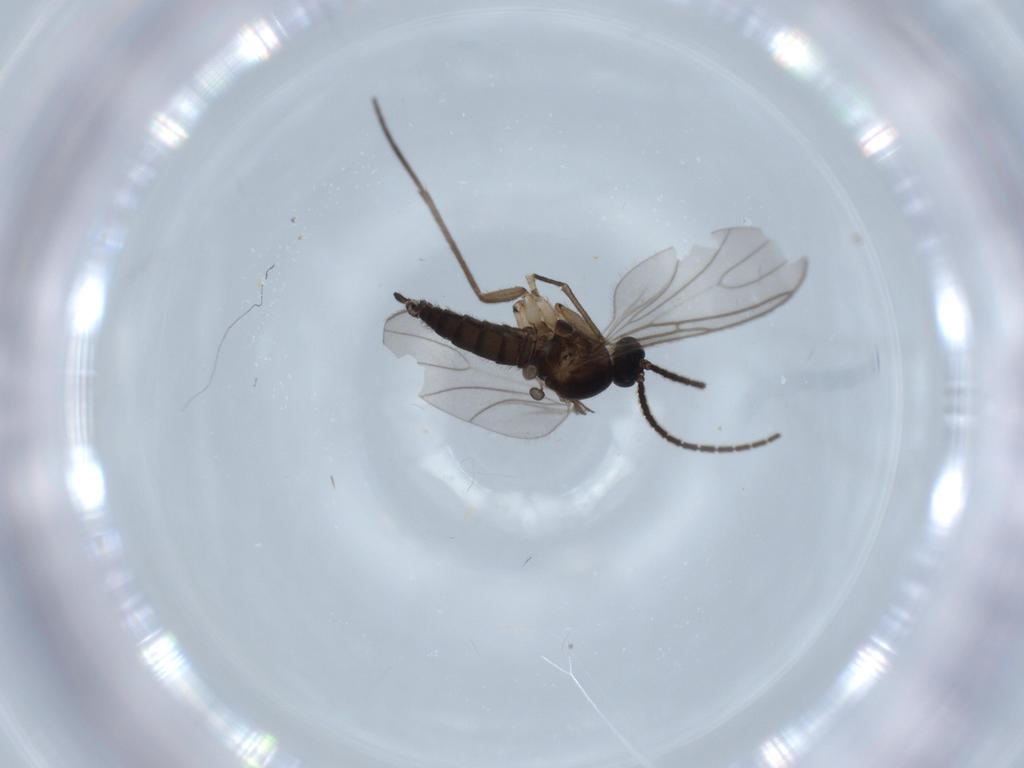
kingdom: Animalia
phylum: Arthropoda
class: Insecta
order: Diptera
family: Sciaridae
